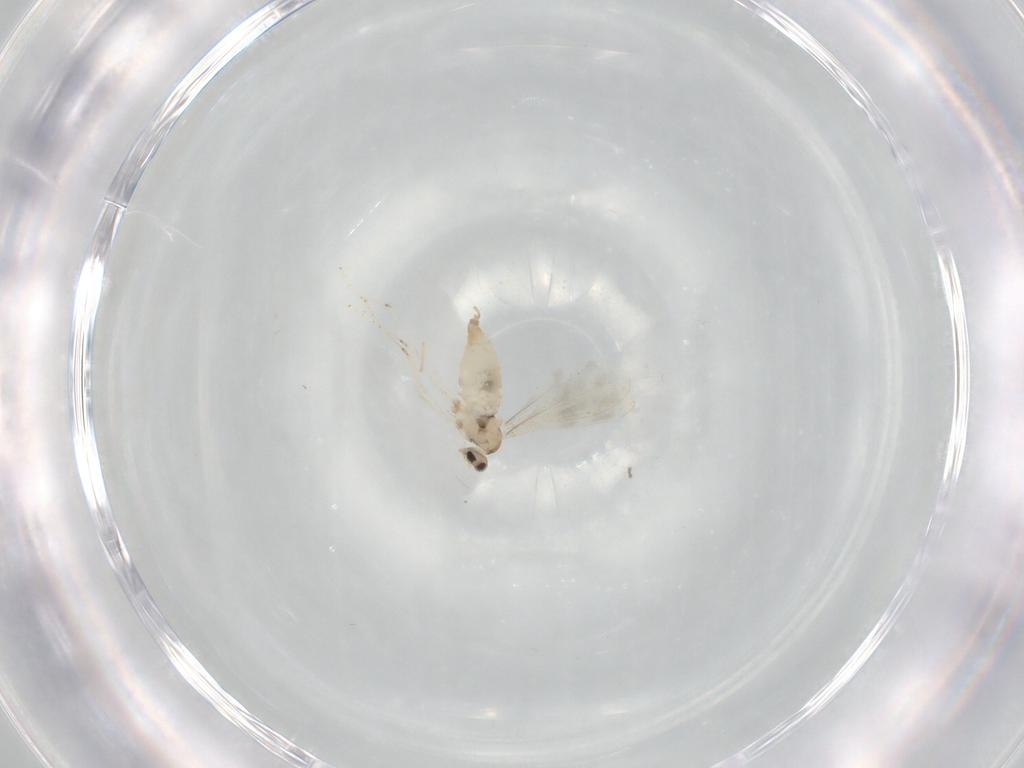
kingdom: Animalia
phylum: Arthropoda
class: Insecta
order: Diptera
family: Cecidomyiidae
